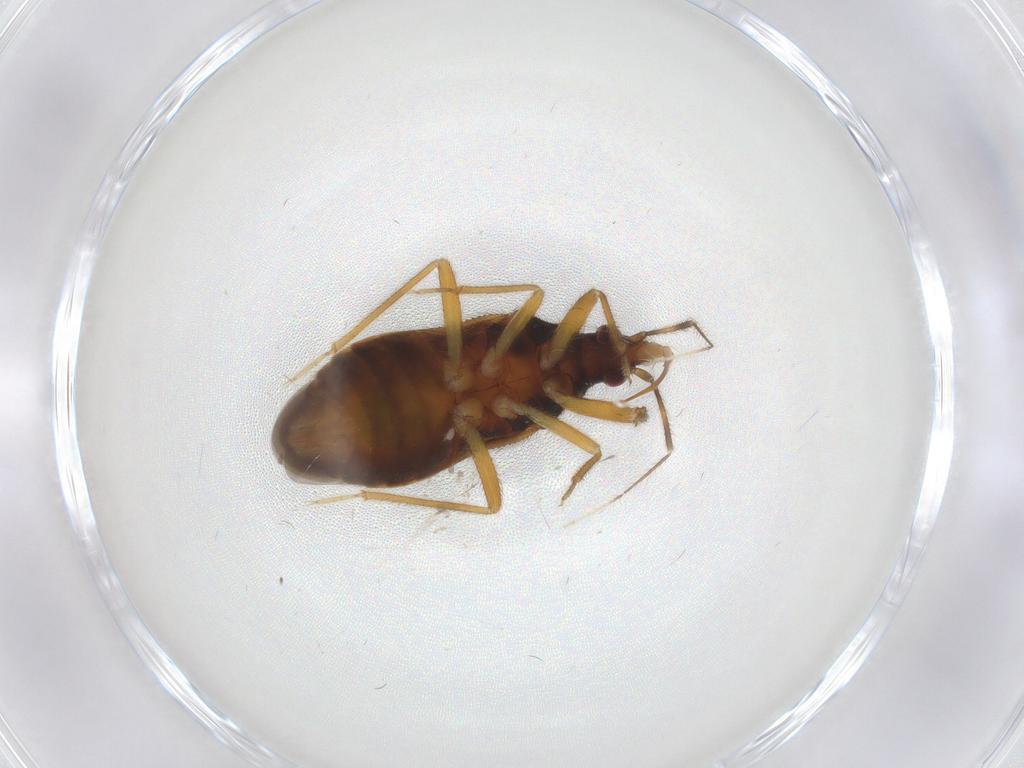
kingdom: Animalia
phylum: Arthropoda
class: Insecta
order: Hemiptera
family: Anthocoridae
